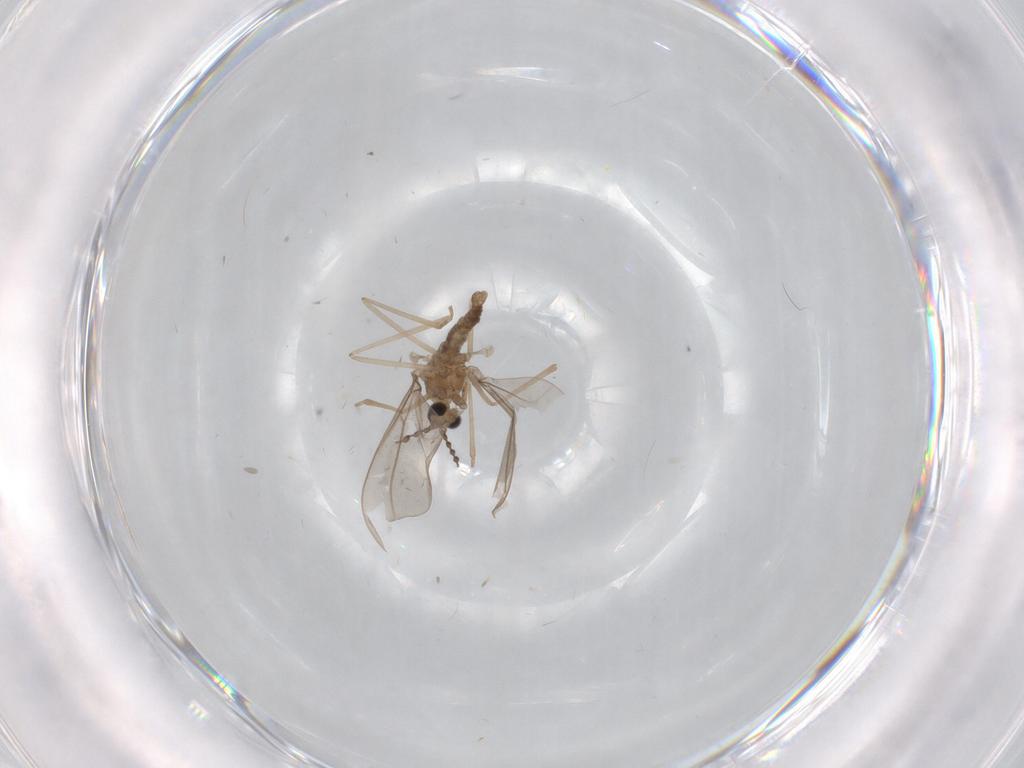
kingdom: Animalia
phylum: Arthropoda
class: Insecta
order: Diptera
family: Cecidomyiidae
